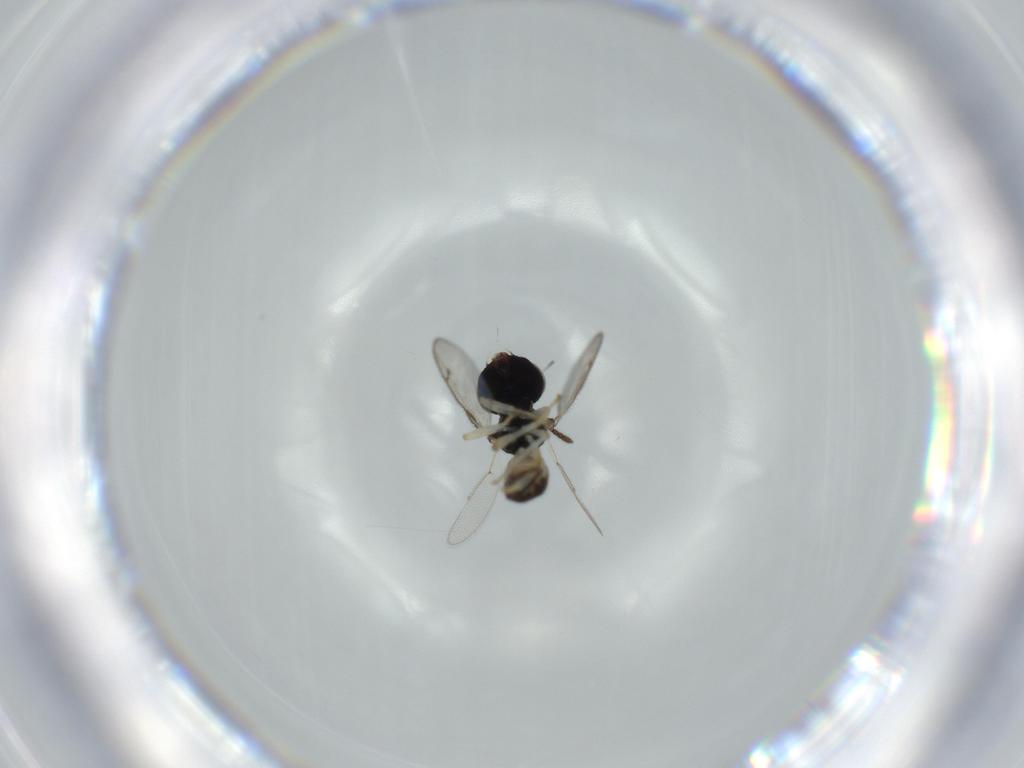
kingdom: Animalia
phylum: Arthropoda
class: Insecta
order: Hymenoptera
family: Pteromalidae
